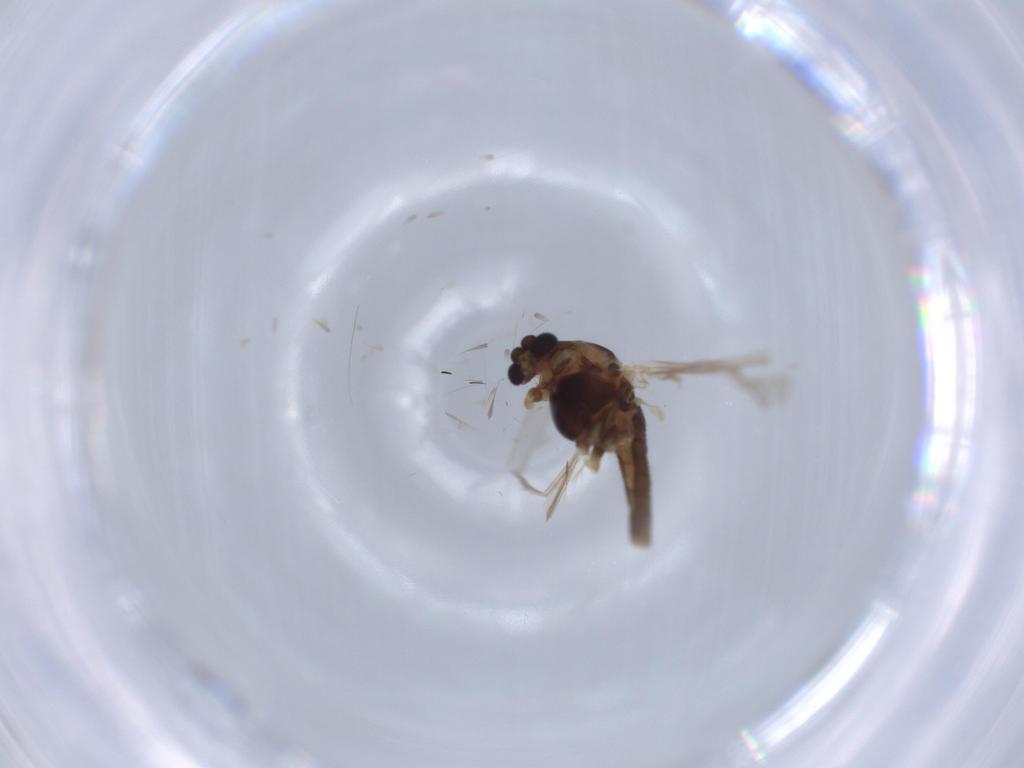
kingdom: Animalia
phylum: Arthropoda
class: Insecta
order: Diptera
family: Chironomidae
